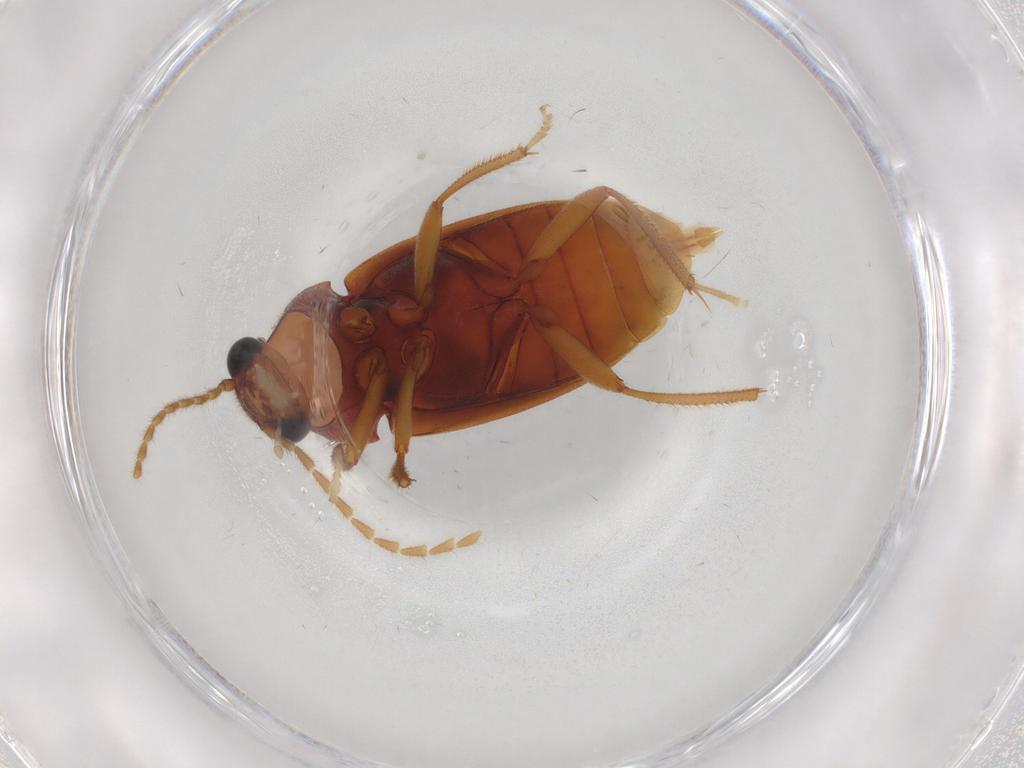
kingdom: Animalia
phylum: Arthropoda
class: Insecta
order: Coleoptera
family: Ptilodactylidae
